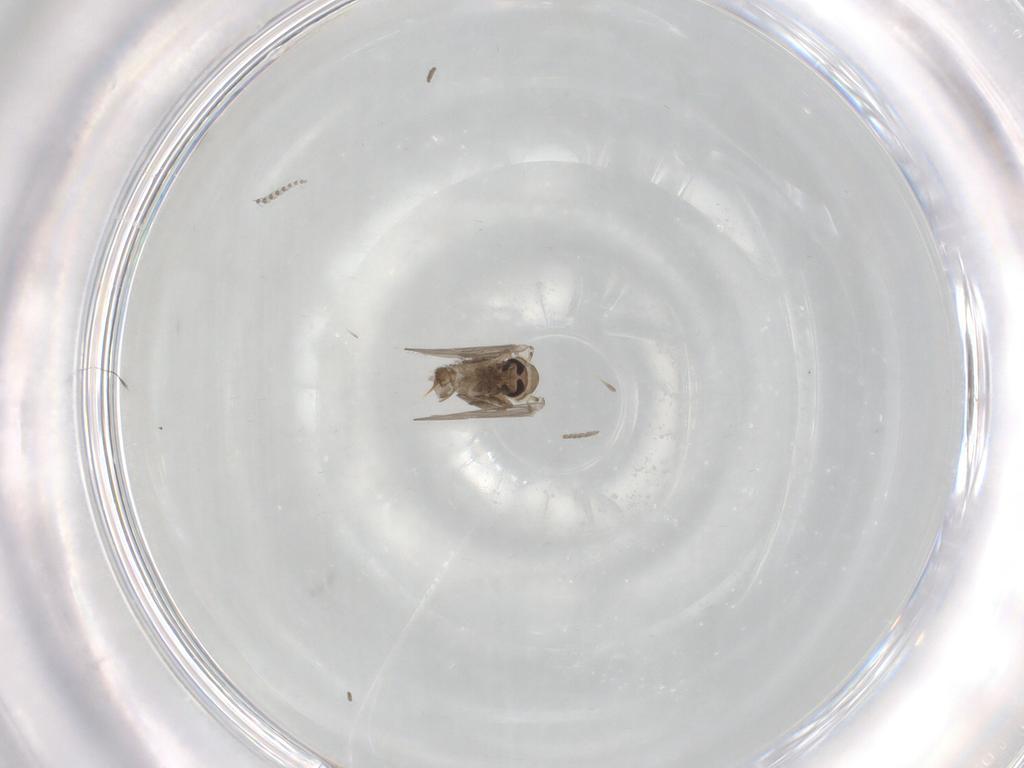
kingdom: Animalia
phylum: Arthropoda
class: Insecta
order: Diptera
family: Psychodidae
